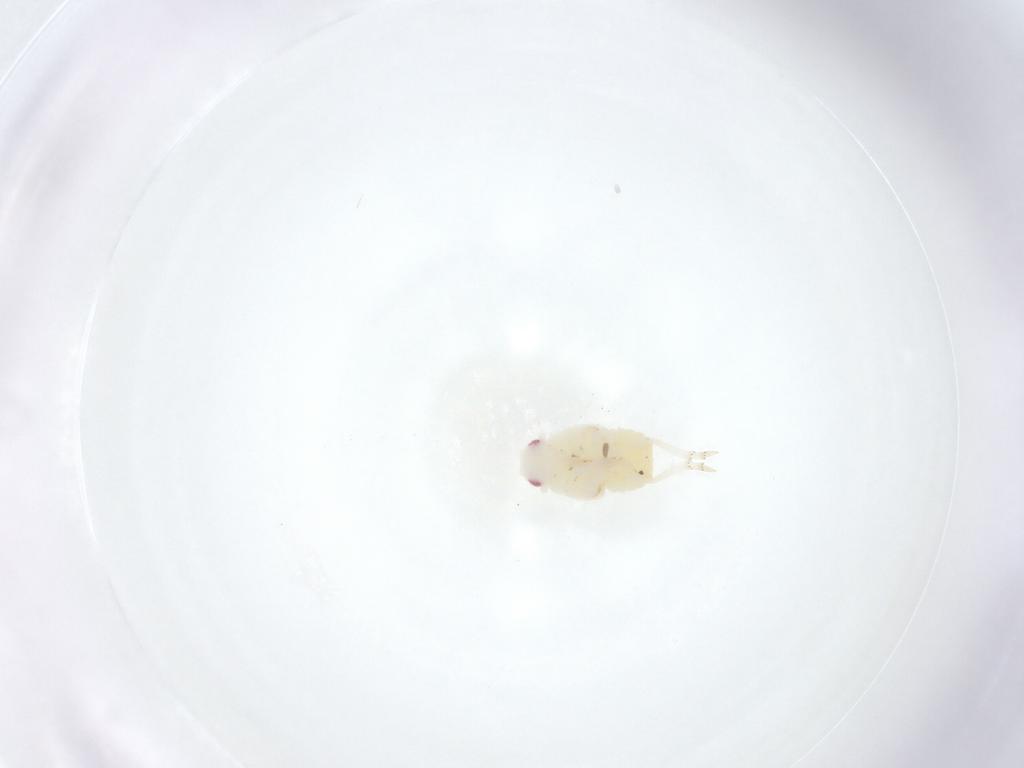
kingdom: Animalia
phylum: Arthropoda
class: Insecta
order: Hemiptera
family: Flatidae
